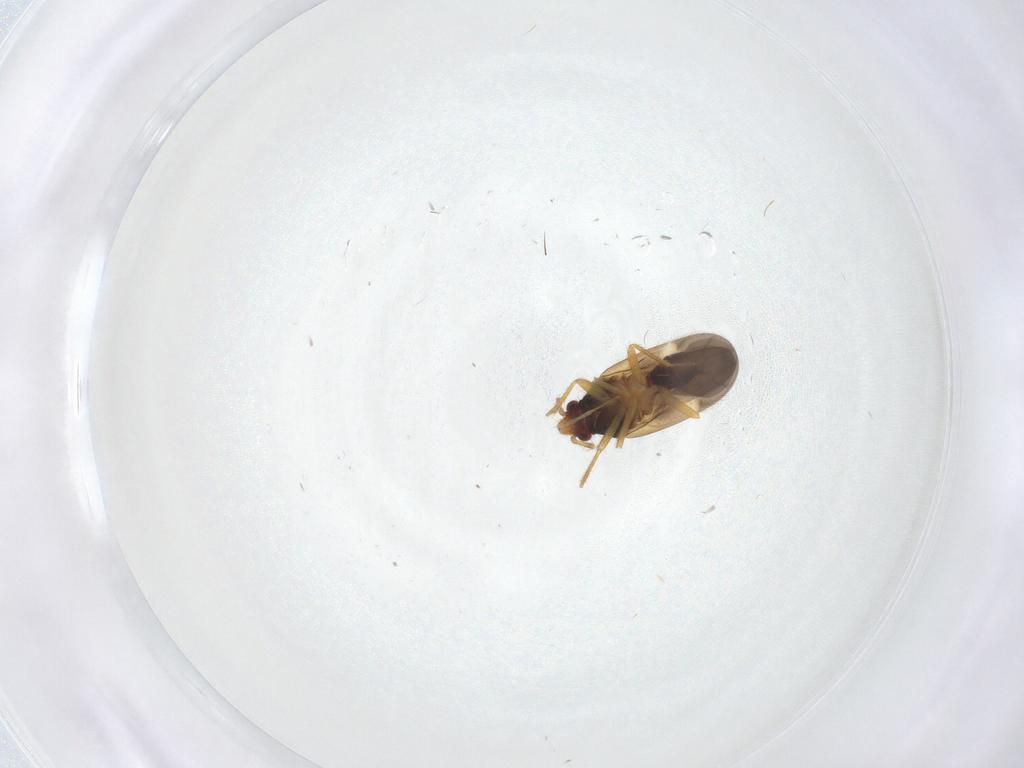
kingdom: Animalia
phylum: Arthropoda
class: Insecta
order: Hemiptera
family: Ceratocombidae
